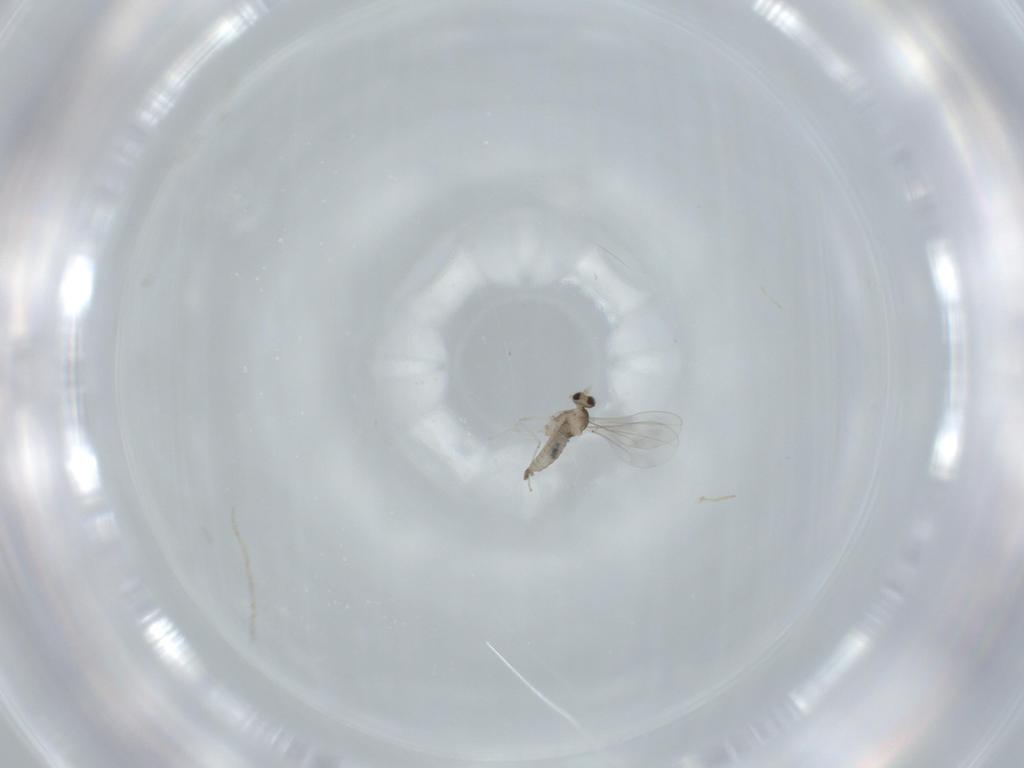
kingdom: Animalia
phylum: Arthropoda
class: Insecta
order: Diptera
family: Cecidomyiidae
